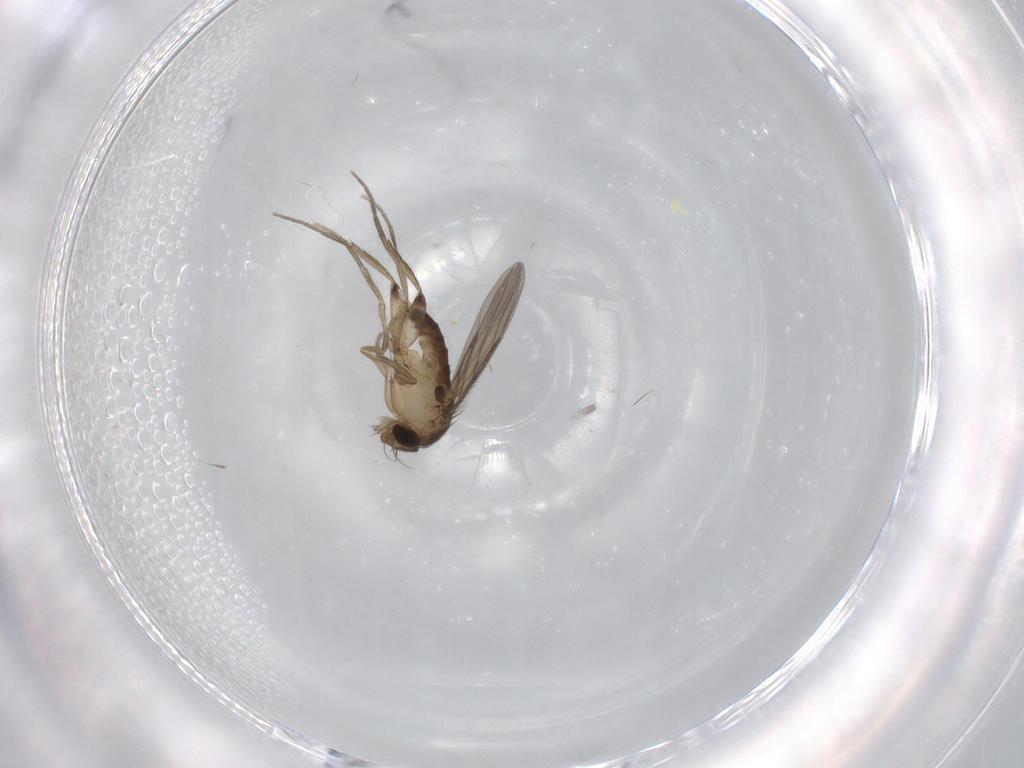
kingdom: Animalia
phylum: Arthropoda
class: Insecta
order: Diptera
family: Phoridae
